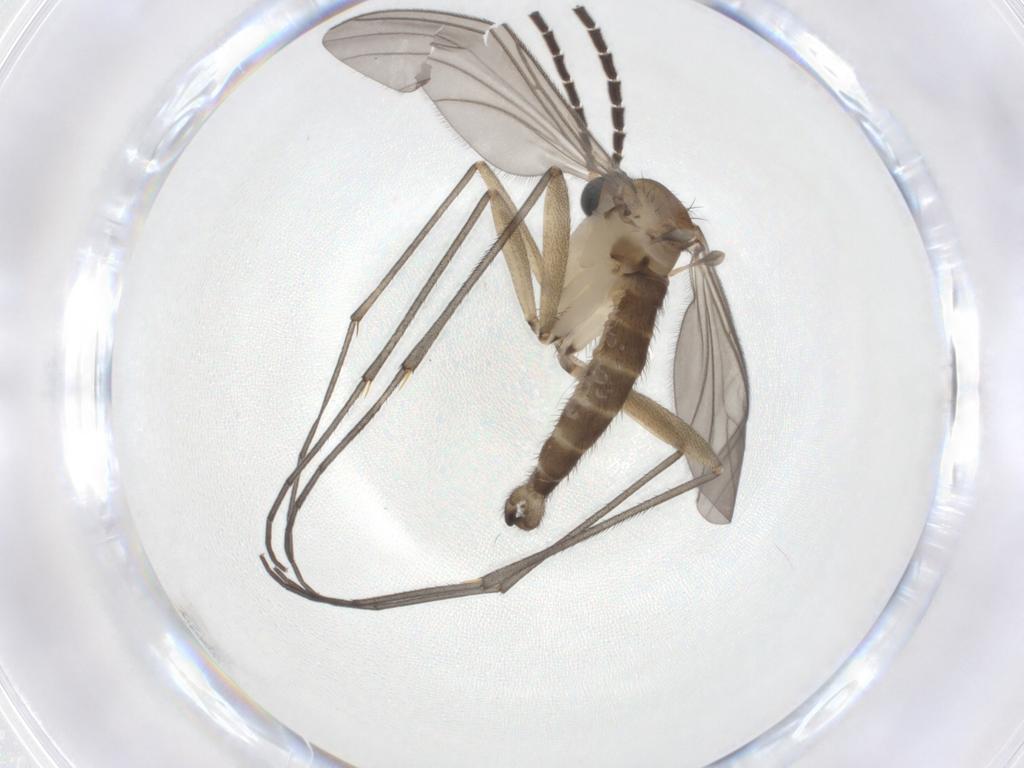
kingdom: Animalia
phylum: Arthropoda
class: Insecta
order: Diptera
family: Sciaridae
